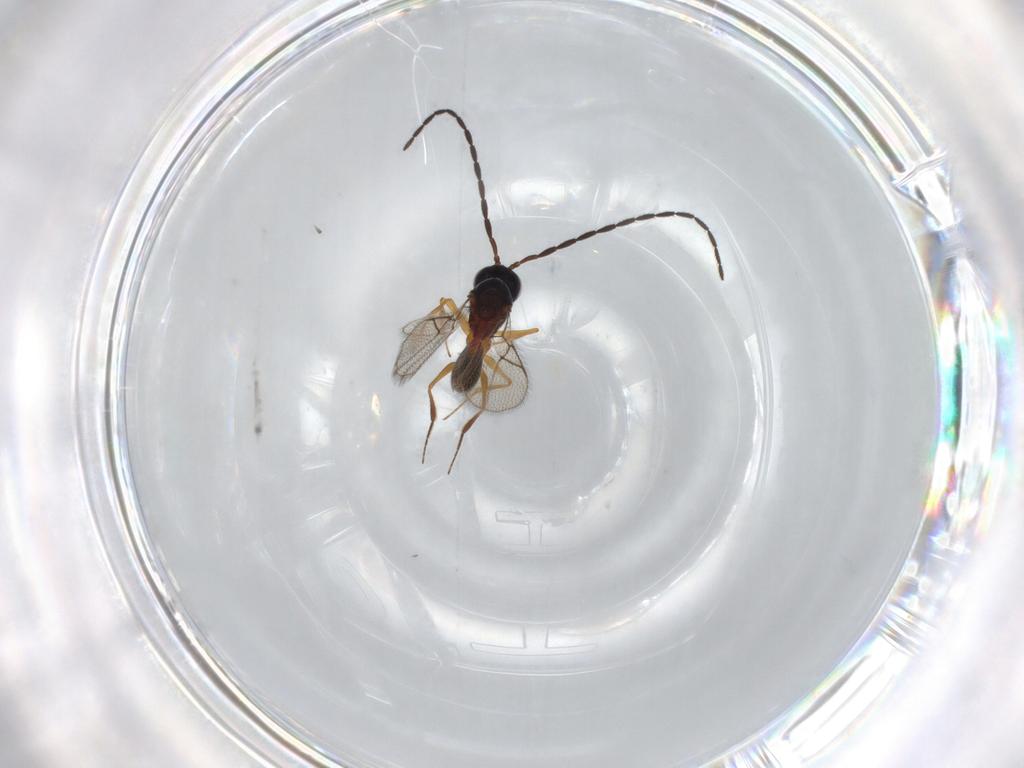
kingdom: Animalia
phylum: Arthropoda
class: Insecta
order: Hymenoptera
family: Figitidae
